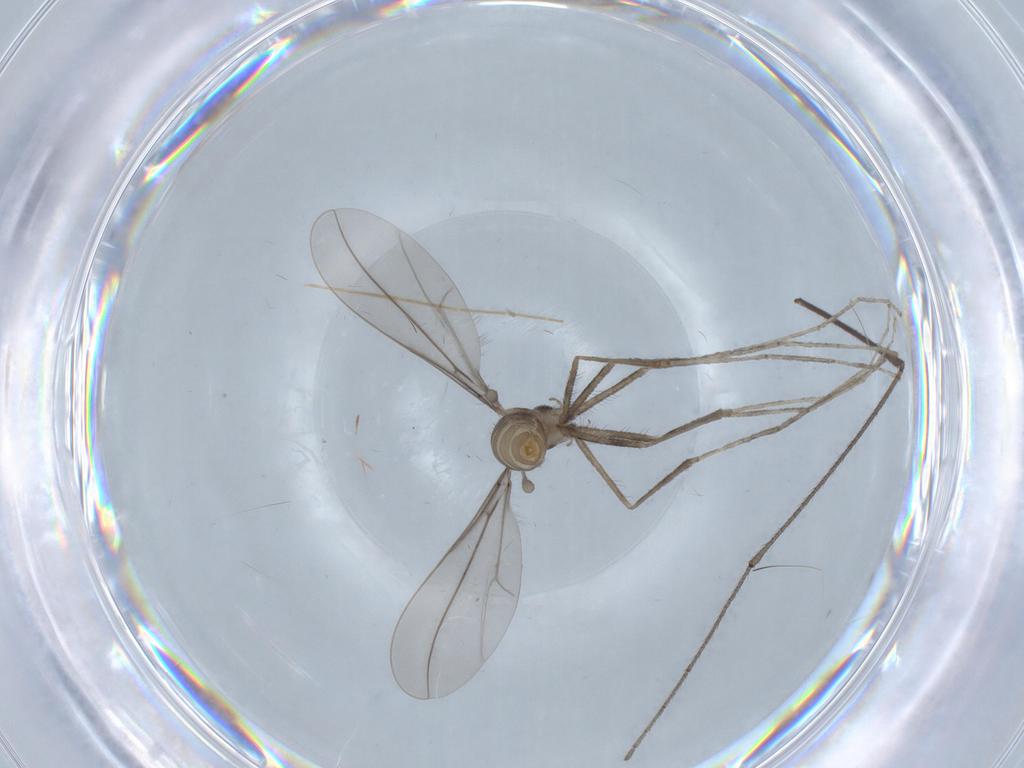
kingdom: Animalia
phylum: Arthropoda
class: Insecta
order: Diptera
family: Cecidomyiidae
